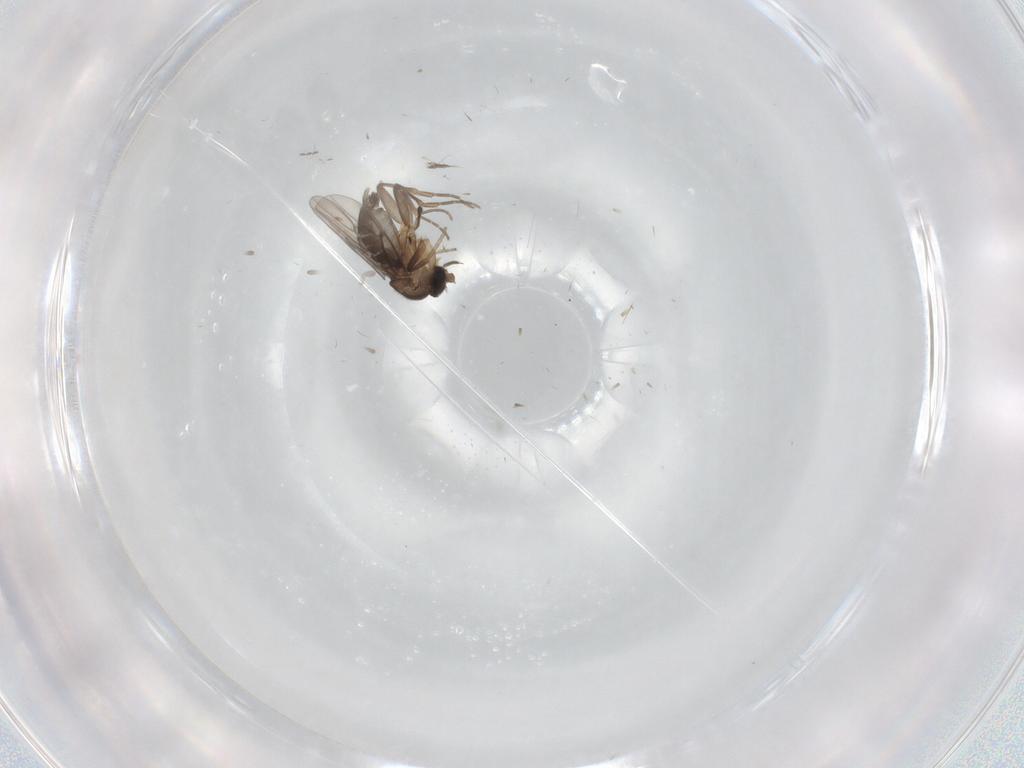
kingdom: Animalia
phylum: Arthropoda
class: Insecta
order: Diptera
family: Phoridae
